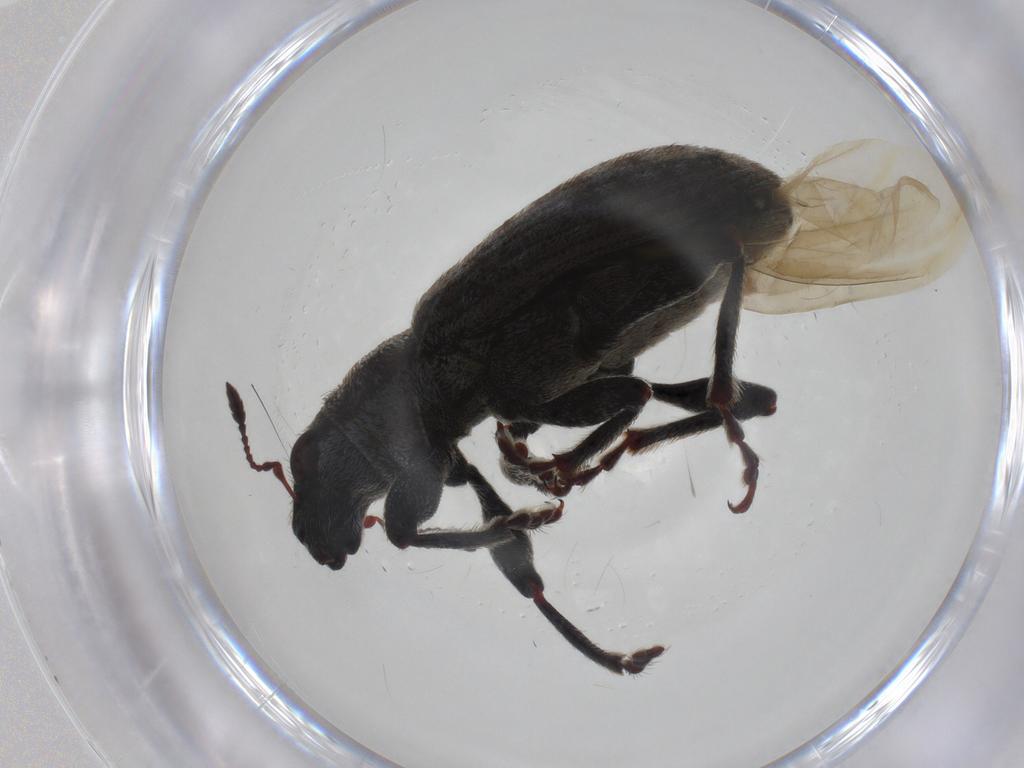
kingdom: Animalia
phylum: Arthropoda
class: Insecta
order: Coleoptera
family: Curculionidae
